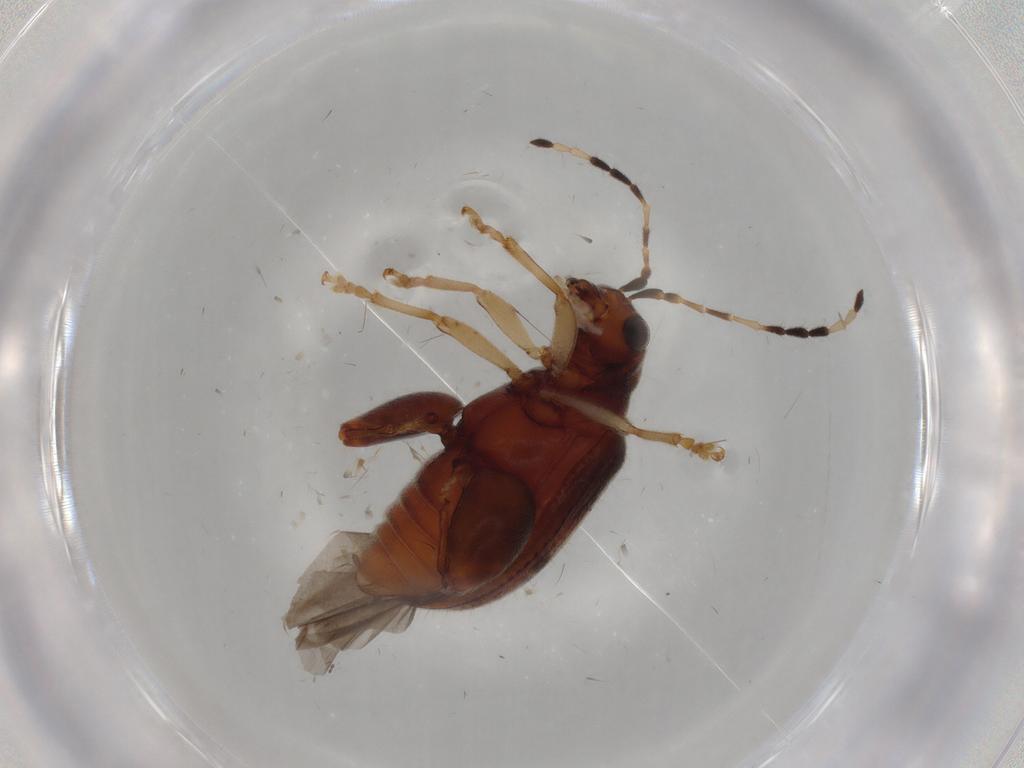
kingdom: Animalia
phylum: Arthropoda
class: Insecta
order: Coleoptera
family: Chrysomelidae
